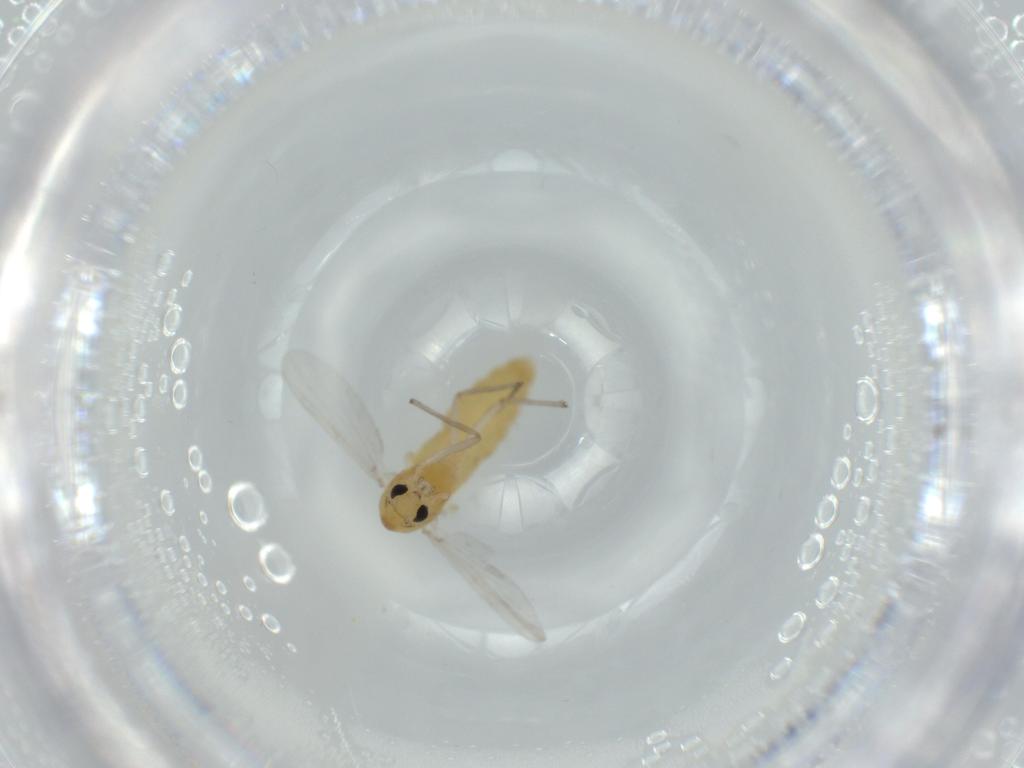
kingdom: Animalia
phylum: Arthropoda
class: Insecta
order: Diptera
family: Chironomidae
